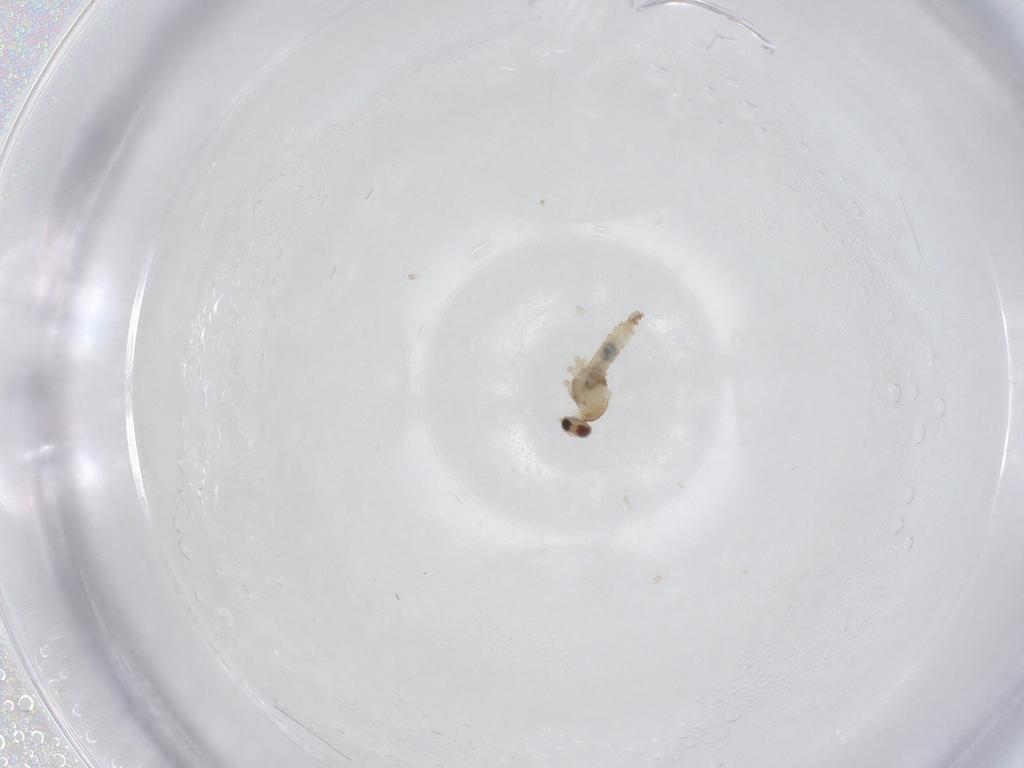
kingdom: Animalia
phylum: Arthropoda
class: Insecta
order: Diptera
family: Cecidomyiidae
